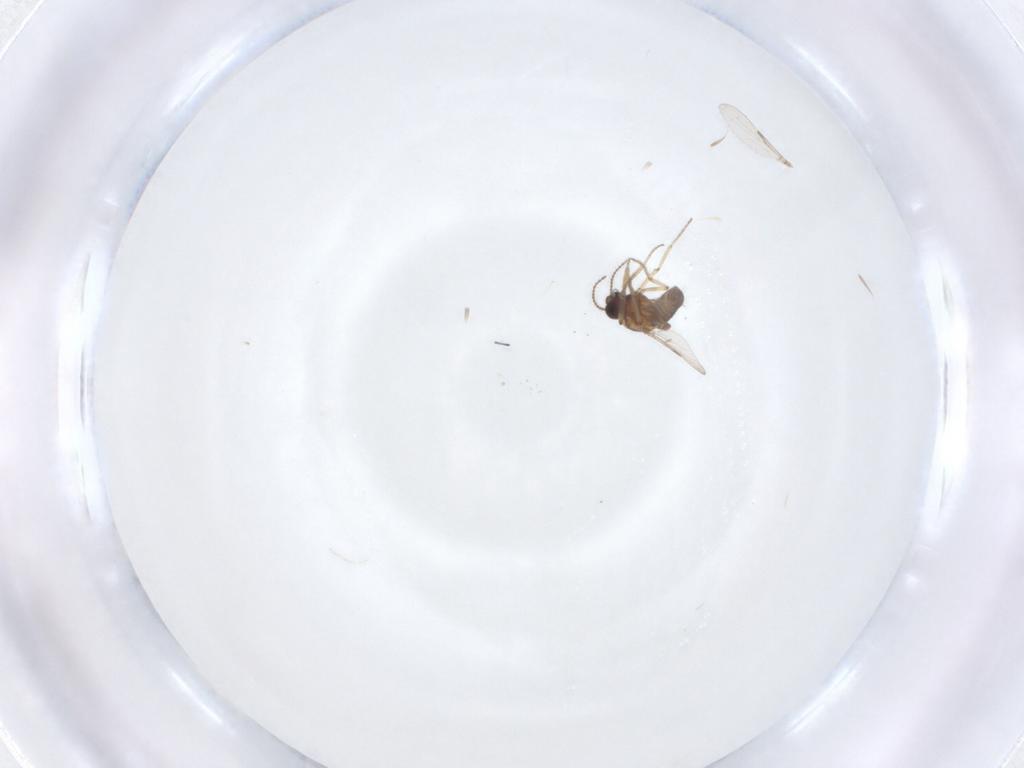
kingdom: Animalia
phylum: Arthropoda
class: Insecta
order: Diptera
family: Ceratopogonidae
